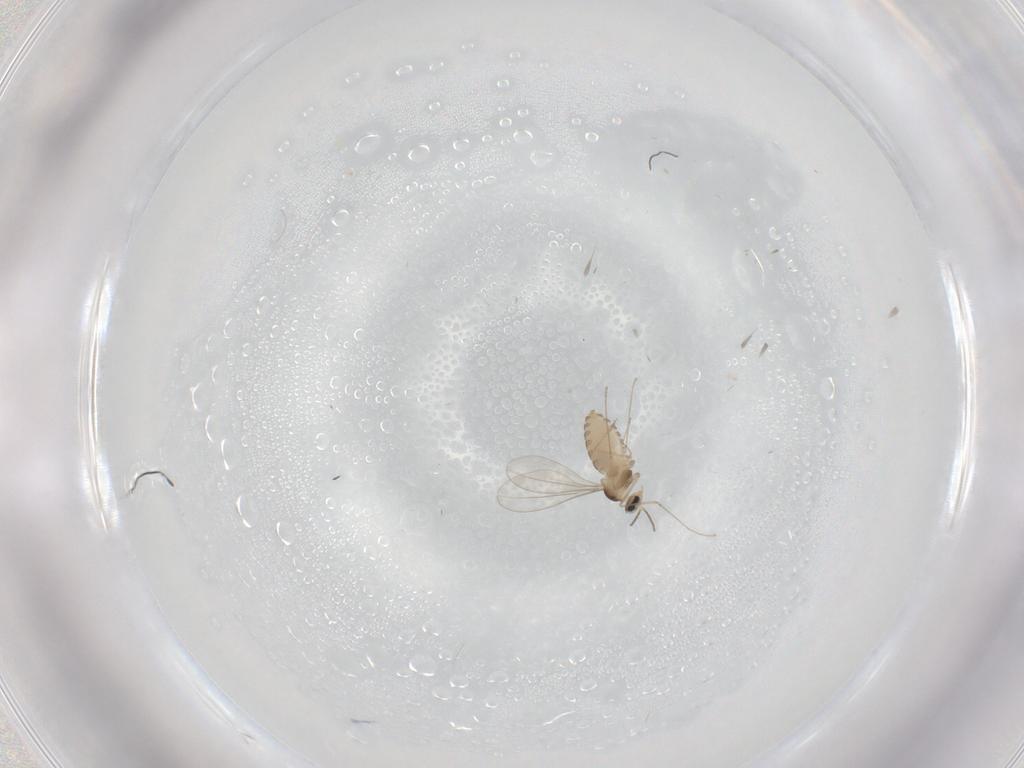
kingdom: Animalia
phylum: Arthropoda
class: Insecta
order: Diptera
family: Cecidomyiidae
